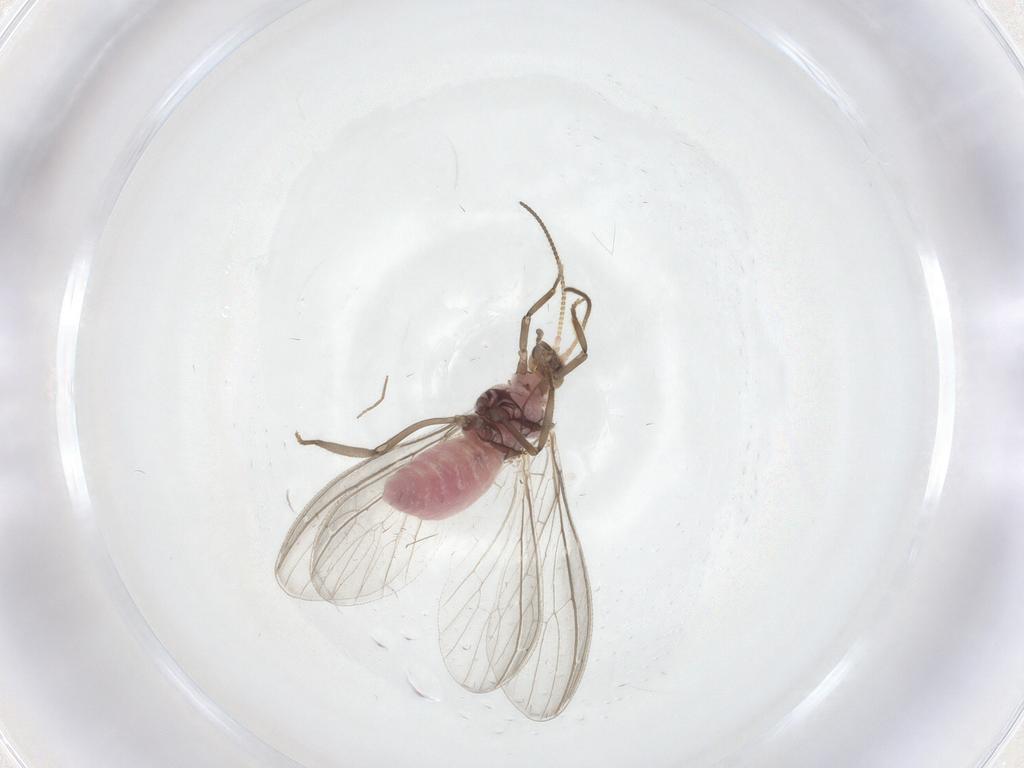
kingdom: Animalia
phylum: Arthropoda
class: Insecta
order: Neuroptera
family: Coniopterygidae
